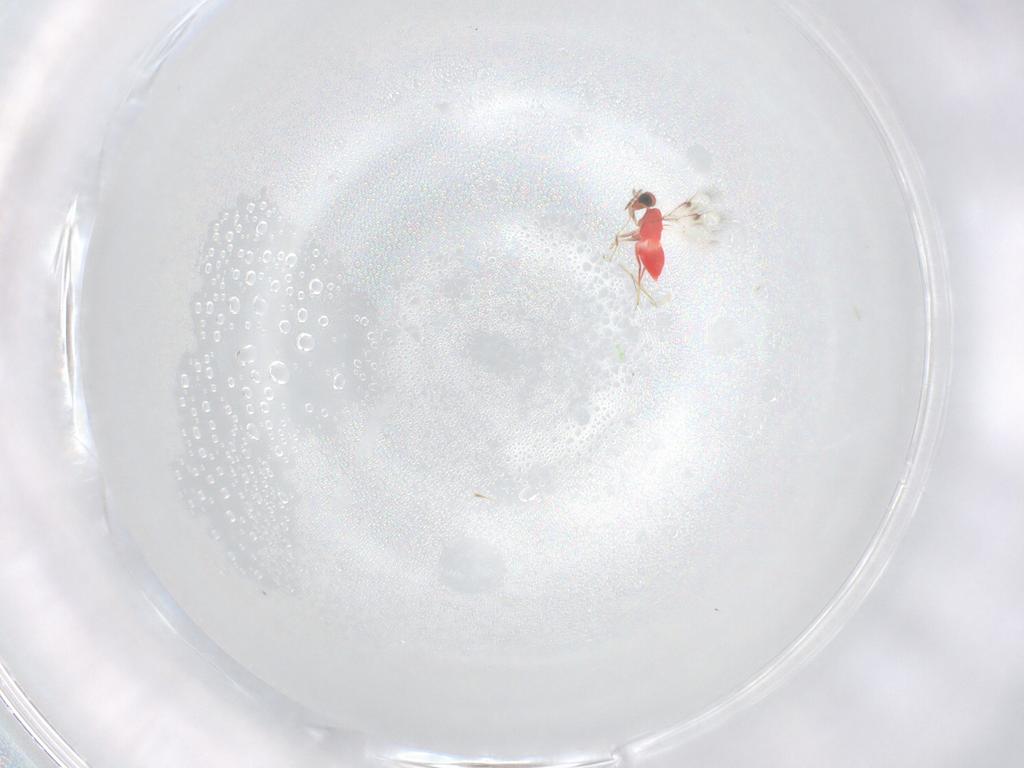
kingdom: Animalia
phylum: Arthropoda
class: Insecta
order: Hymenoptera
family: Trichogrammatidae
